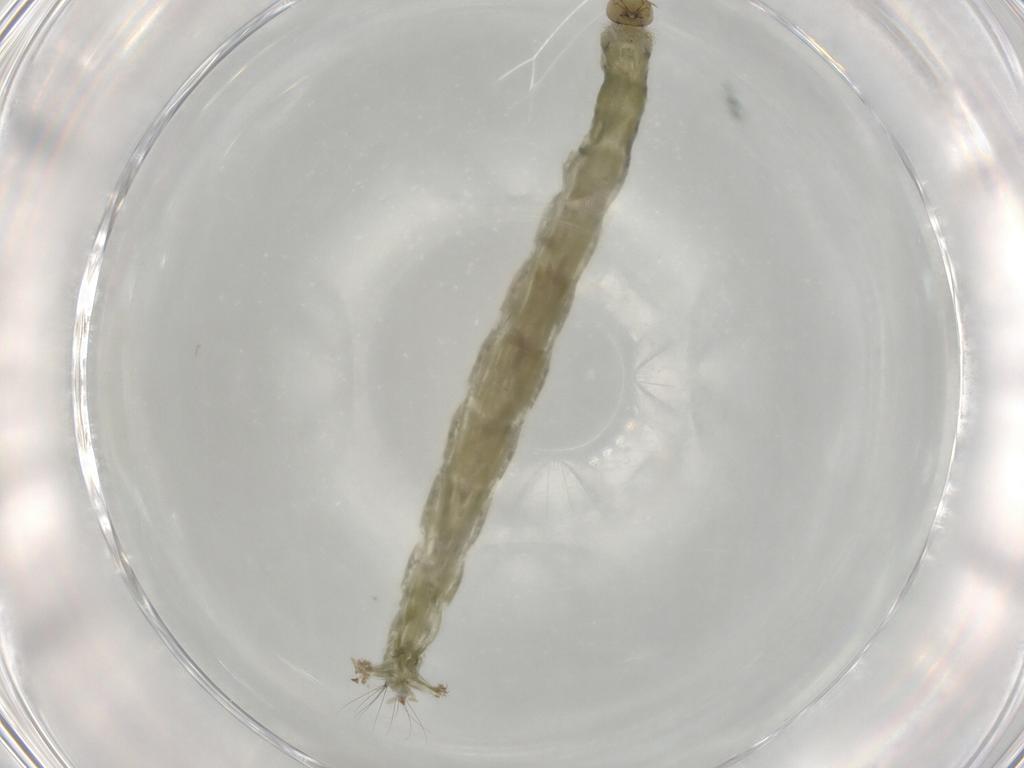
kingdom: Animalia
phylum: Arthropoda
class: Insecta
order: Diptera
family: Chironomidae
